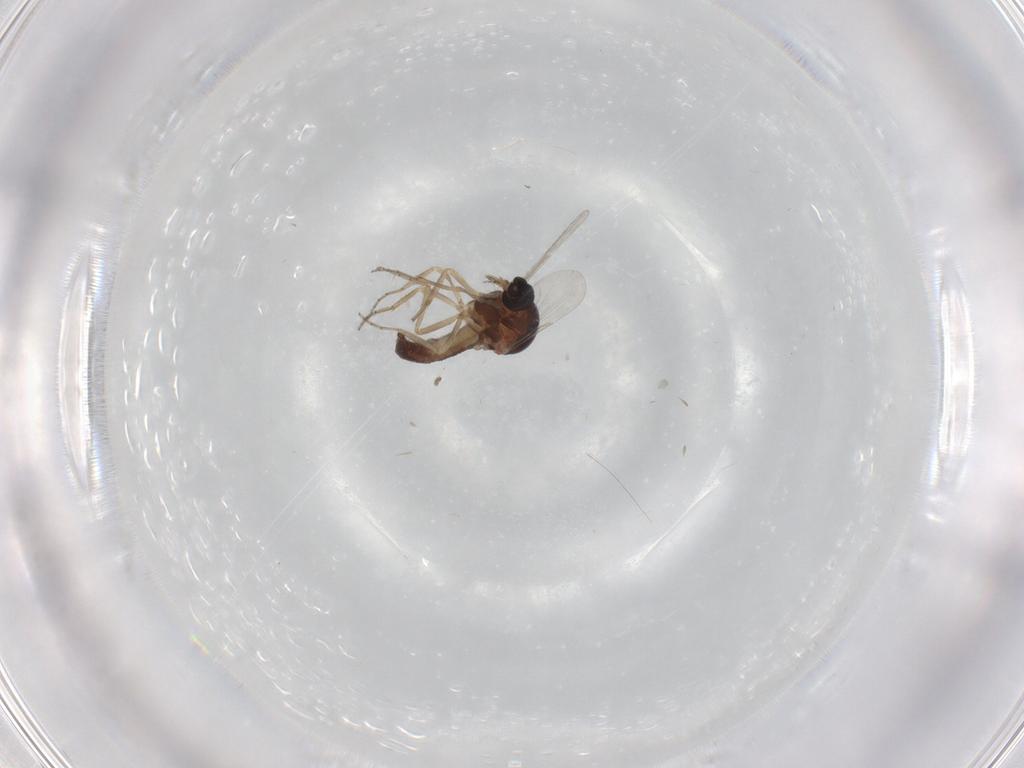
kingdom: Animalia
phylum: Arthropoda
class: Insecta
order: Diptera
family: Ceratopogonidae
